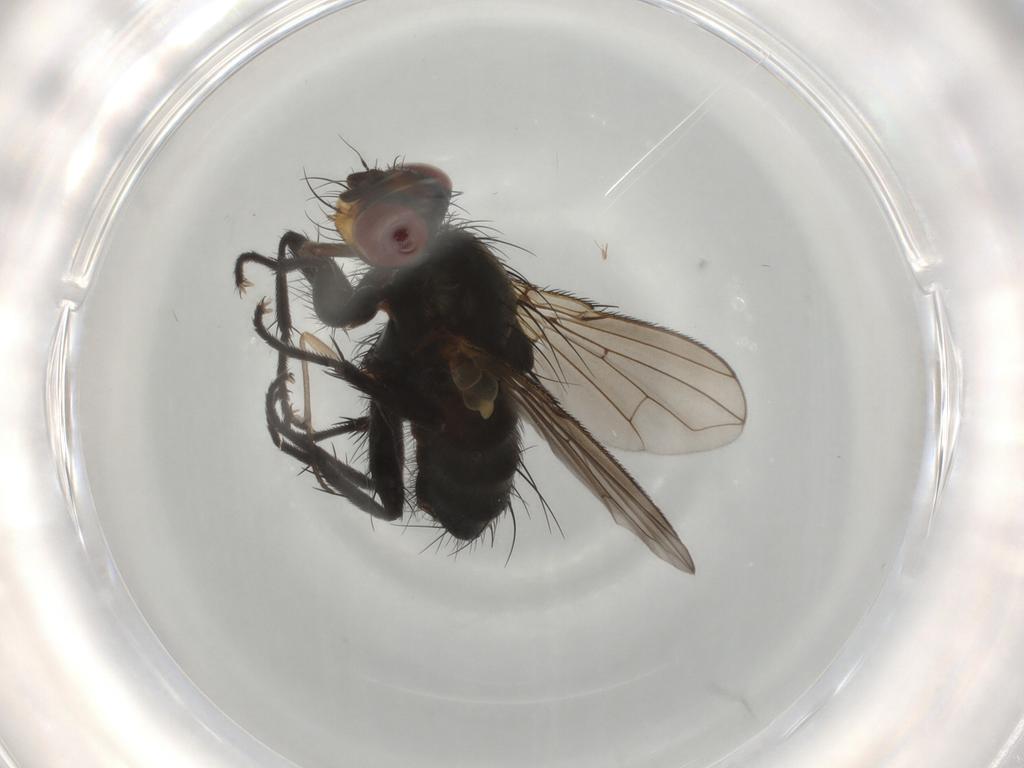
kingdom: Animalia
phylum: Arthropoda
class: Insecta
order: Diptera
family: Tachinidae
